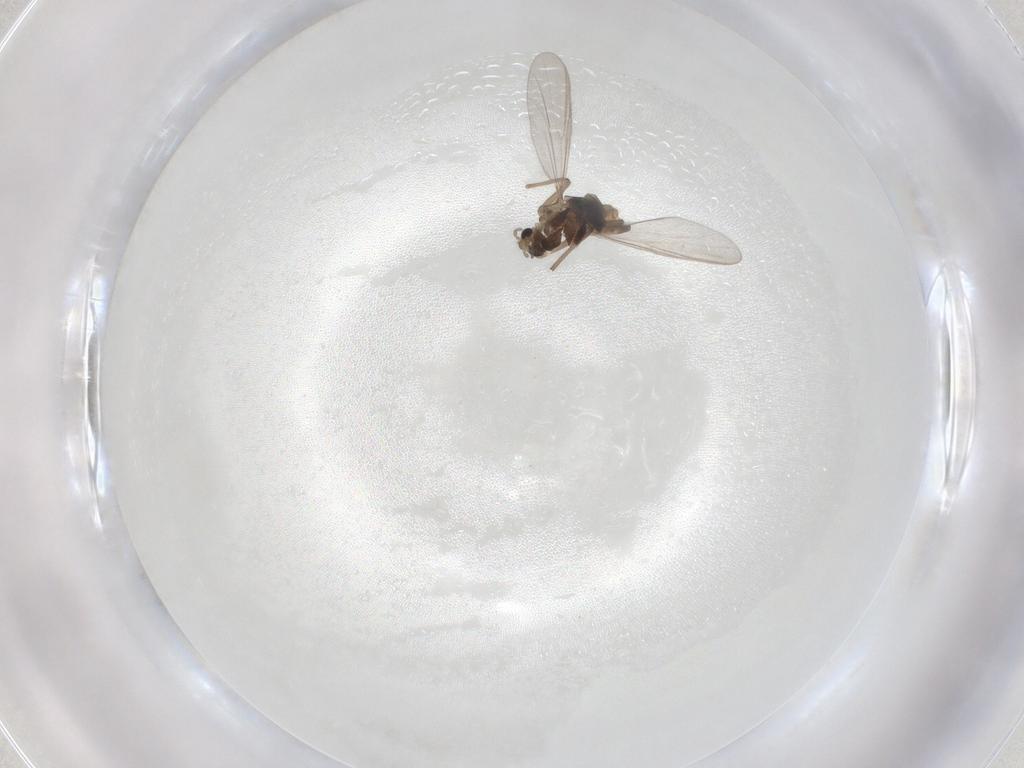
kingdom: Animalia
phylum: Arthropoda
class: Insecta
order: Diptera
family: Chironomidae
